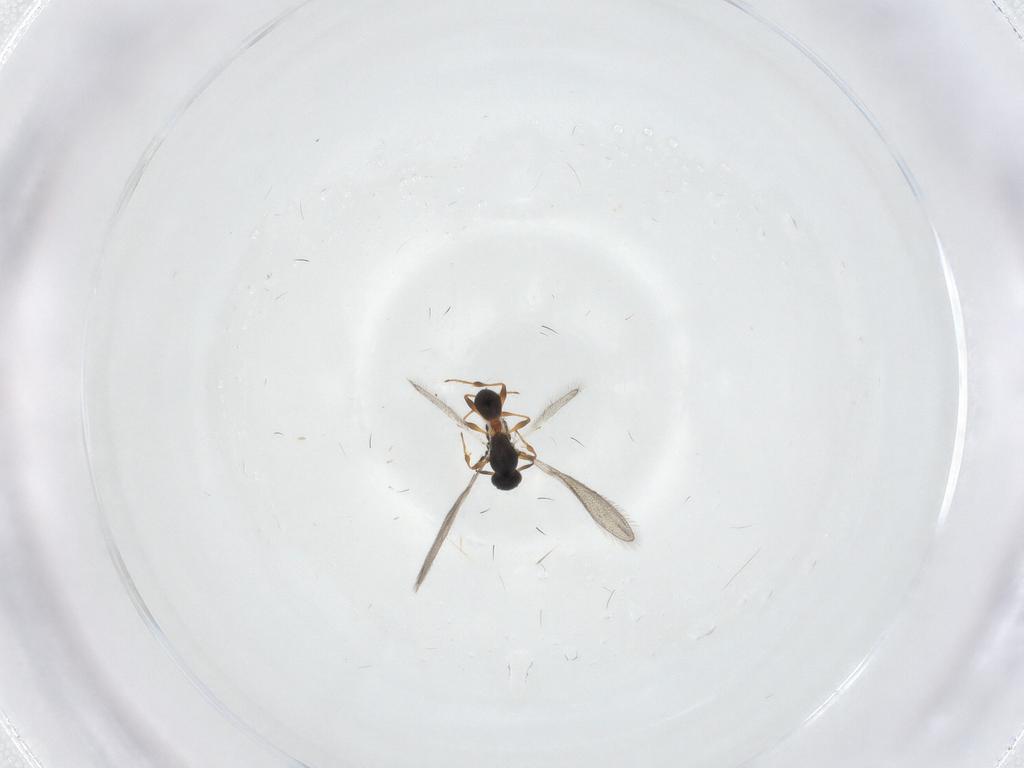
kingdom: Animalia
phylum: Arthropoda
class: Insecta
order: Hymenoptera
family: Platygastridae
